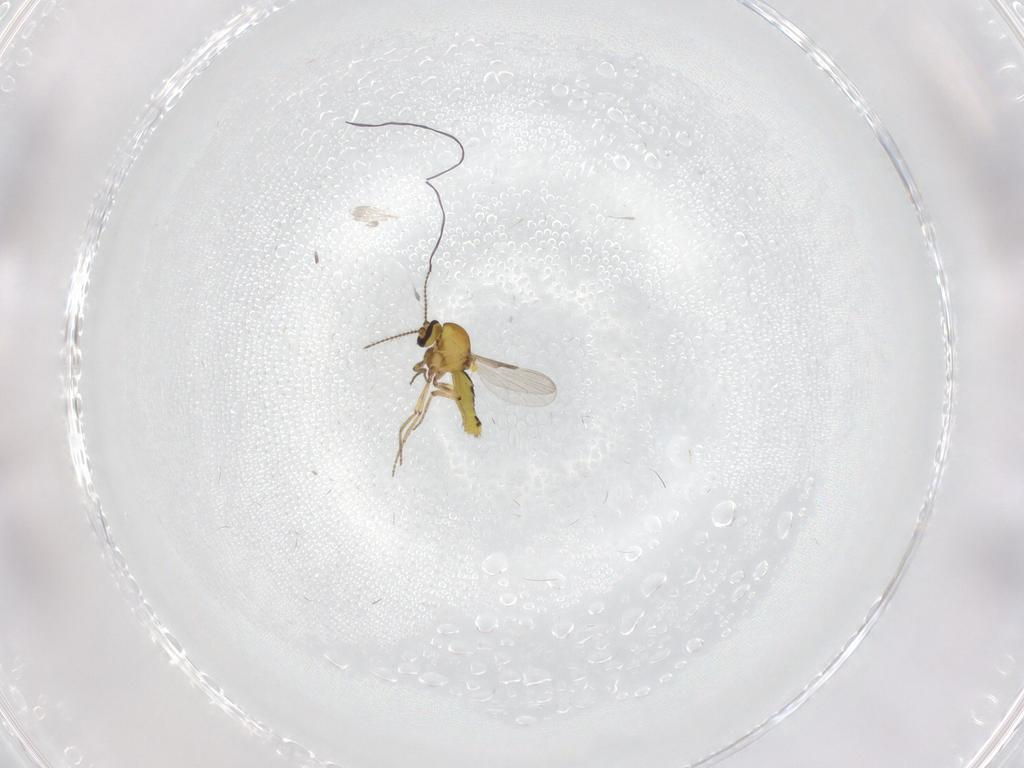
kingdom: Animalia
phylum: Arthropoda
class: Insecta
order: Diptera
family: Ceratopogonidae
